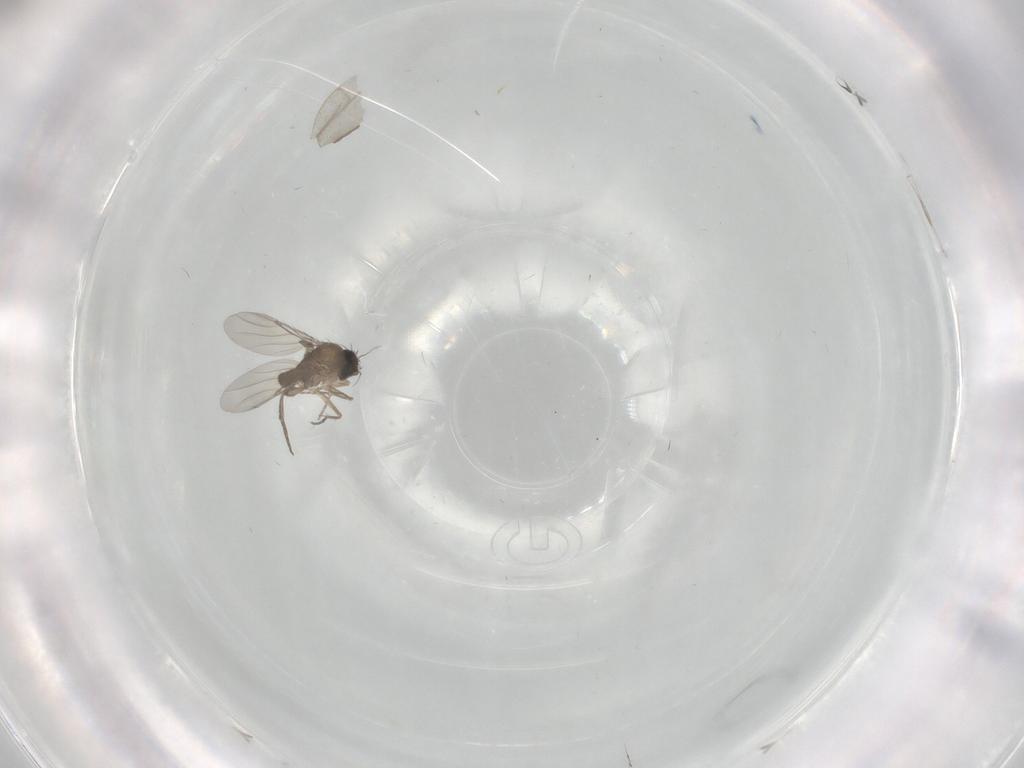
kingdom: Animalia
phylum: Arthropoda
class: Insecta
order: Diptera
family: Phoridae
